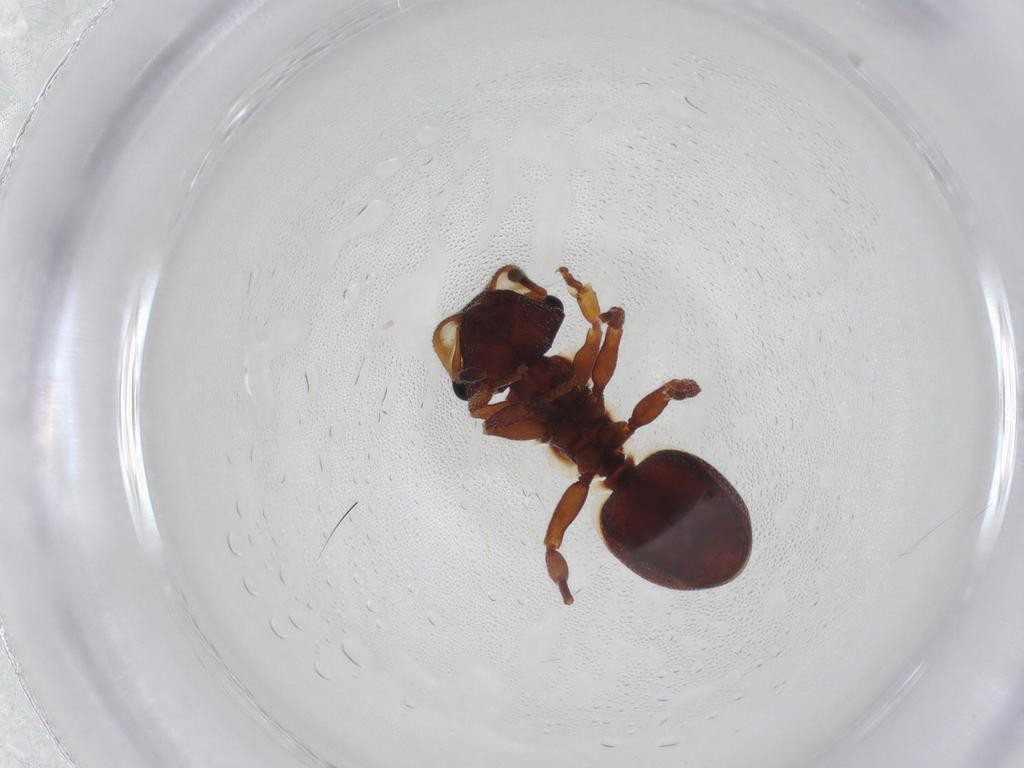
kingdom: Animalia
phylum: Arthropoda
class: Insecta
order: Hymenoptera
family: Formicidae
